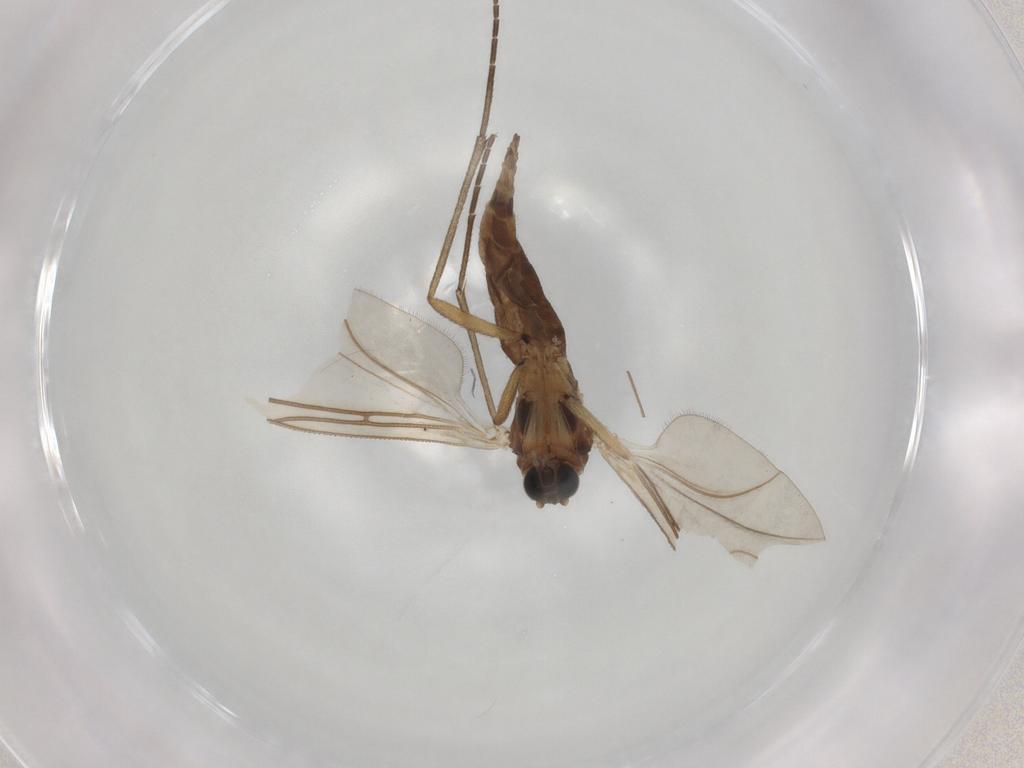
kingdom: Animalia
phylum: Arthropoda
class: Insecta
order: Diptera
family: Chironomidae
